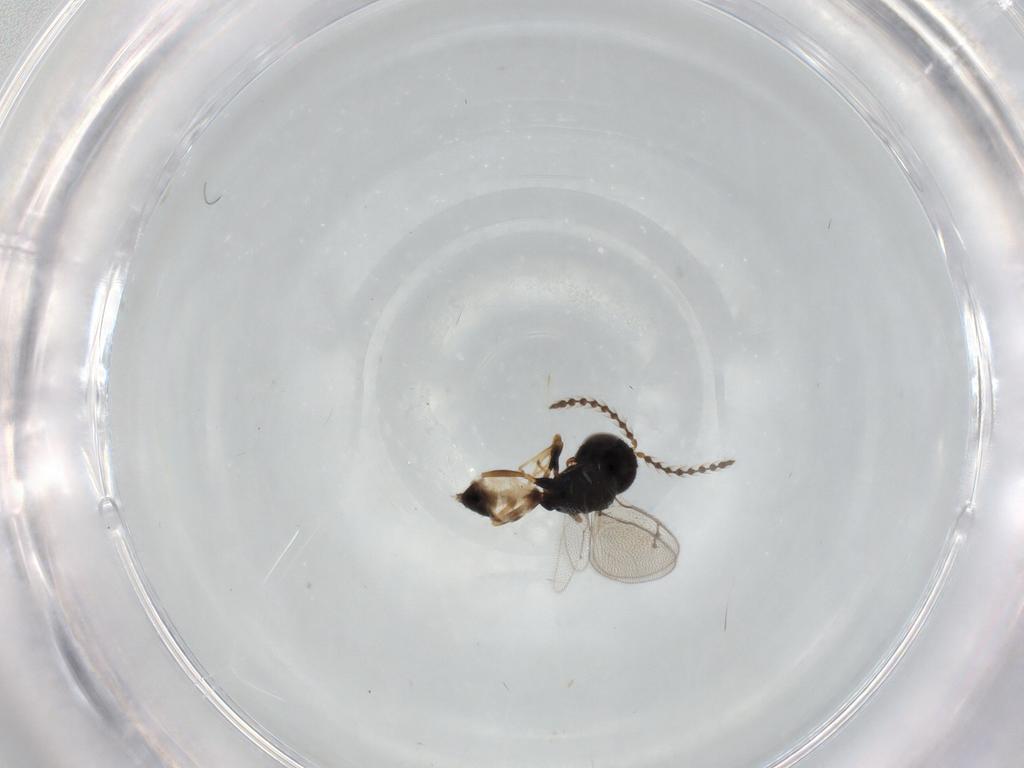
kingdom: Animalia
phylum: Arthropoda
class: Insecta
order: Hymenoptera
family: Pteromalidae
